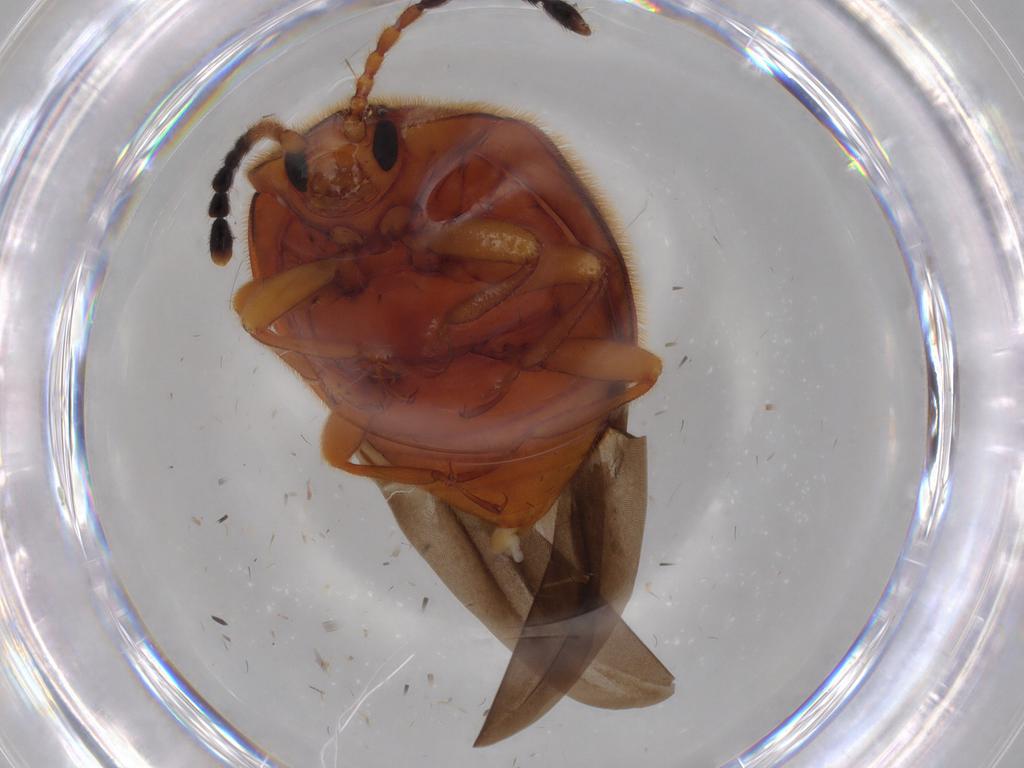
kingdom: Animalia
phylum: Arthropoda
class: Insecta
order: Coleoptera
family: Endomychidae
